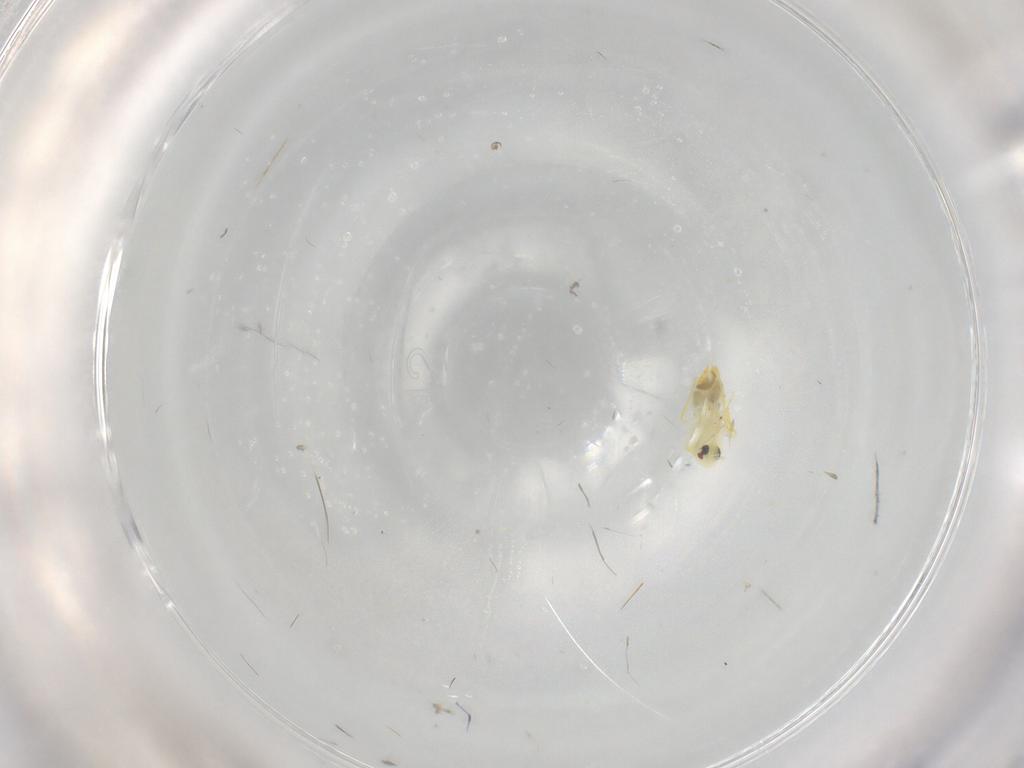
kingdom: Animalia
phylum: Arthropoda
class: Insecta
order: Hemiptera
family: Aleyrodidae
